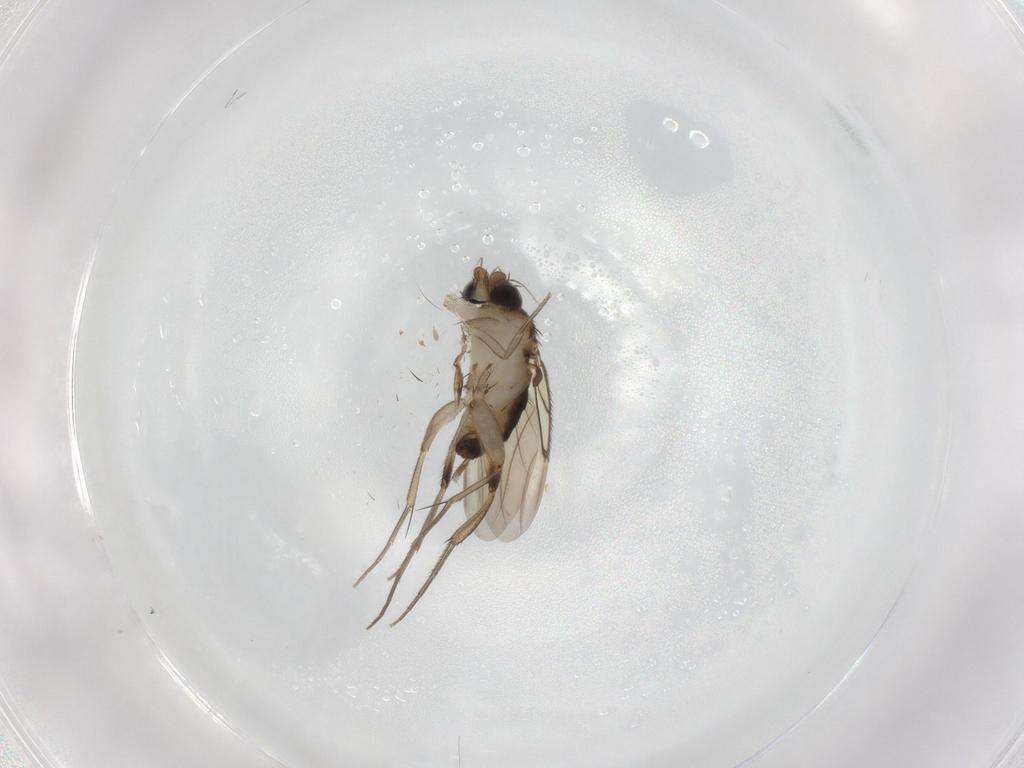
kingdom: Animalia
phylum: Arthropoda
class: Insecta
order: Diptera
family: Phoridae
